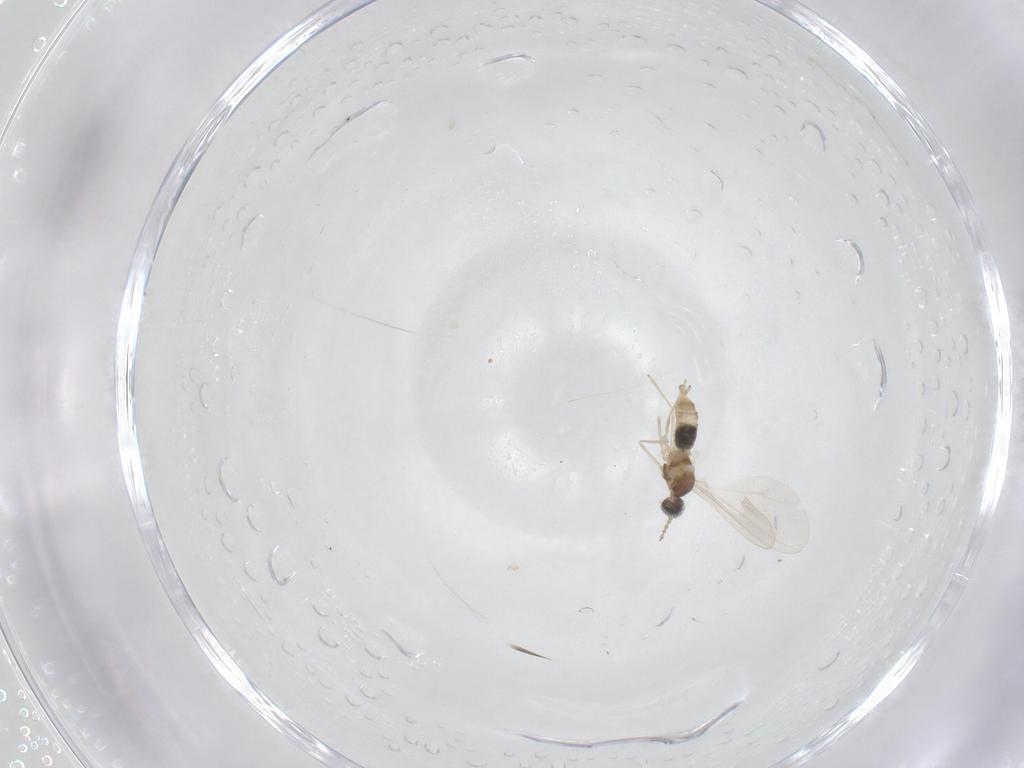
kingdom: Animalia
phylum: Arthropoda
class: Insecta
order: Diptera
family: Cecidomyiidae
